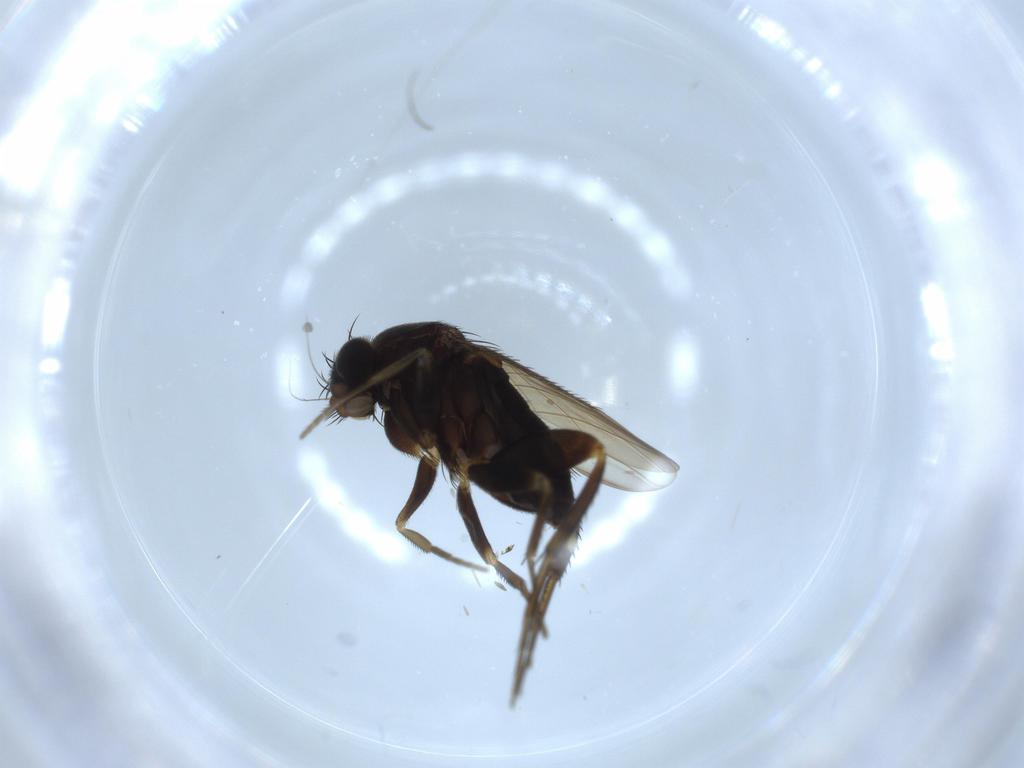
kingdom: Animalia
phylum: Arthropoda
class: Insecta
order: Diptera
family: Phoridae
